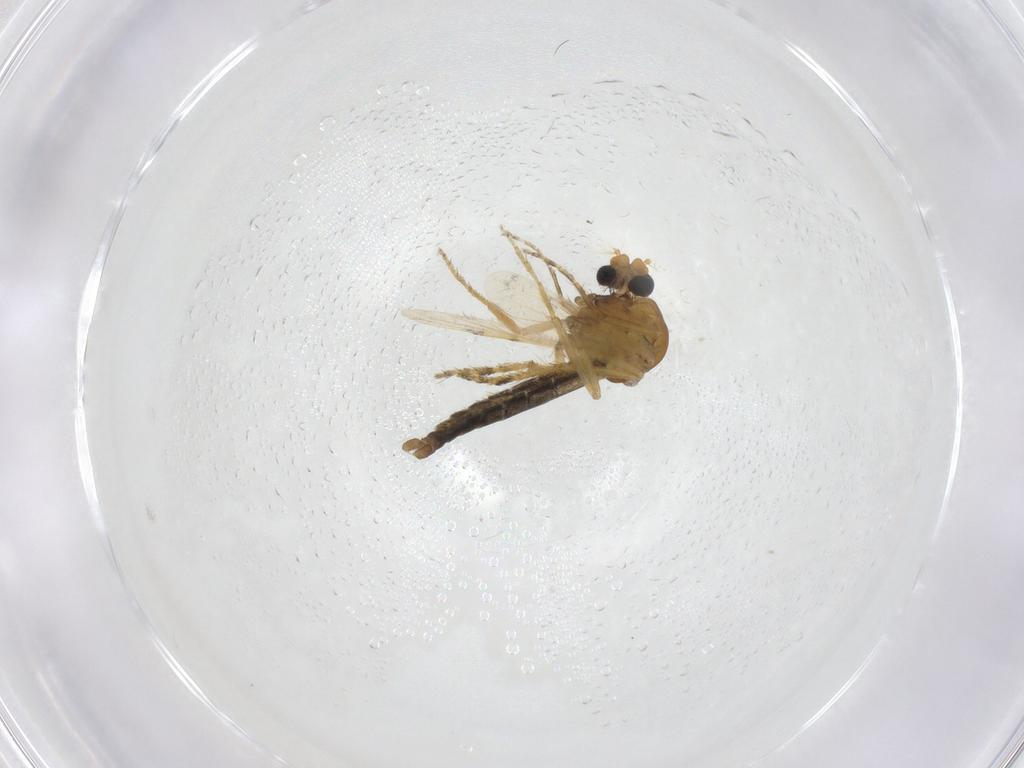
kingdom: Animalia
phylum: Arthropoda
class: Insecta
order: Diptera
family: Ceratopogonidae
